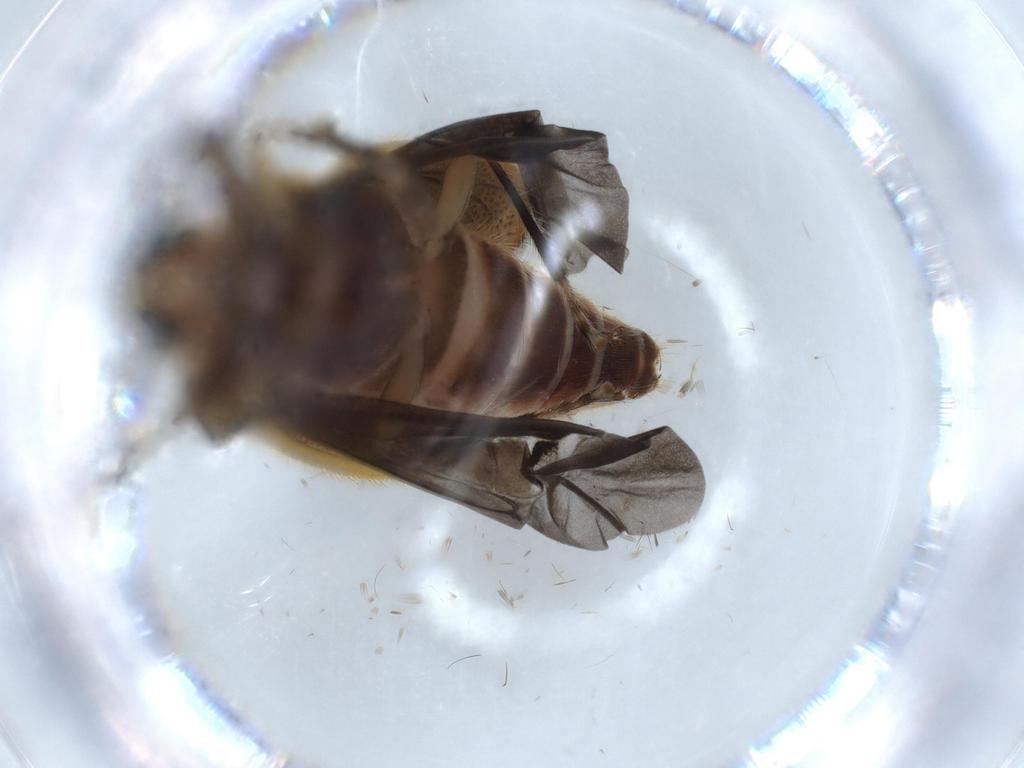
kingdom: Animalia
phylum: Arthropoda
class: Insecta
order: Coleoptera
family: Cleridae
